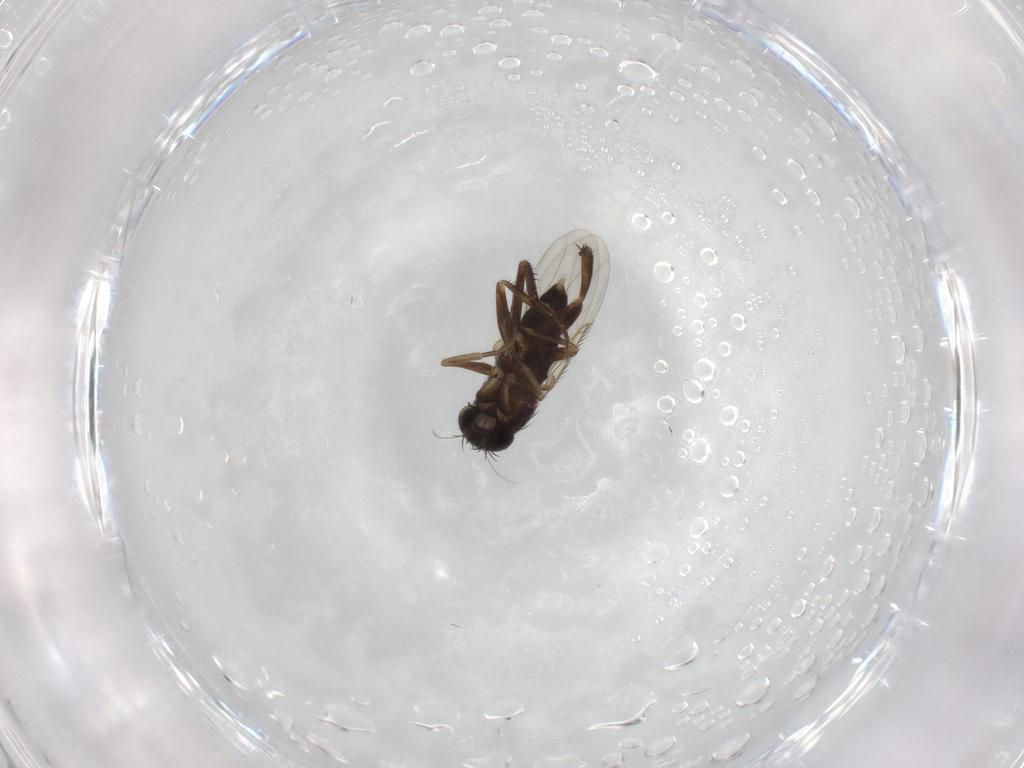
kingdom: Animalia
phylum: Arthropoda
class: Insecta
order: Diptera
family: Phoridae
